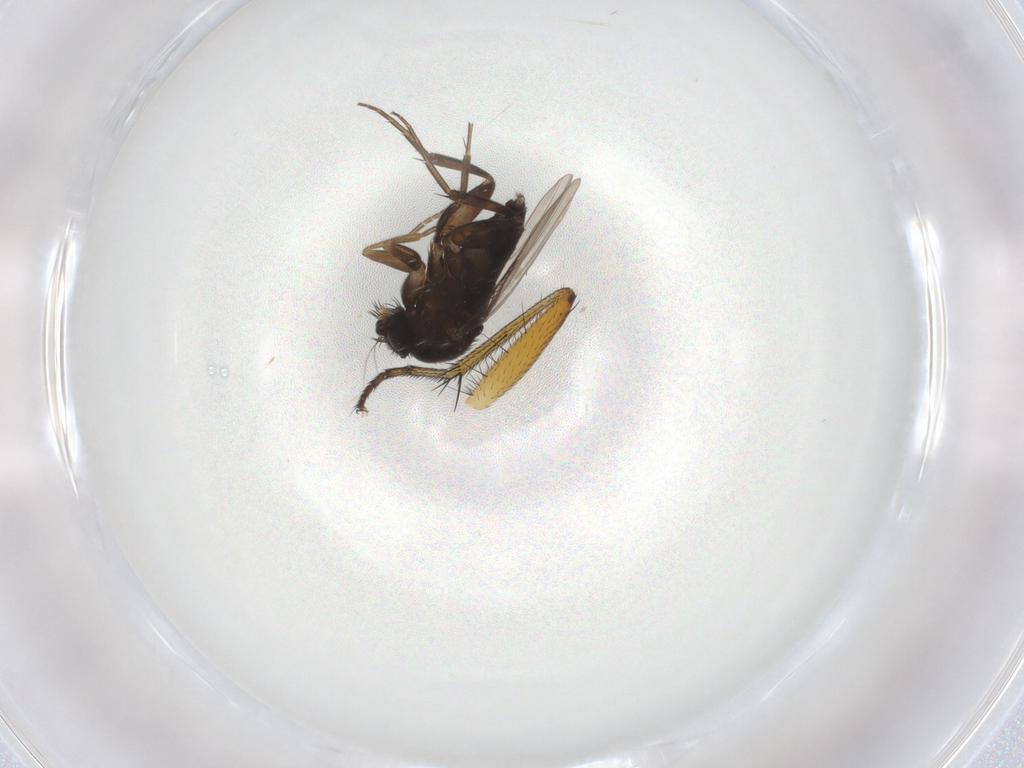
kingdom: Animalia
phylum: Arthropoda
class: Insecta
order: Diptera
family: Phoridae
